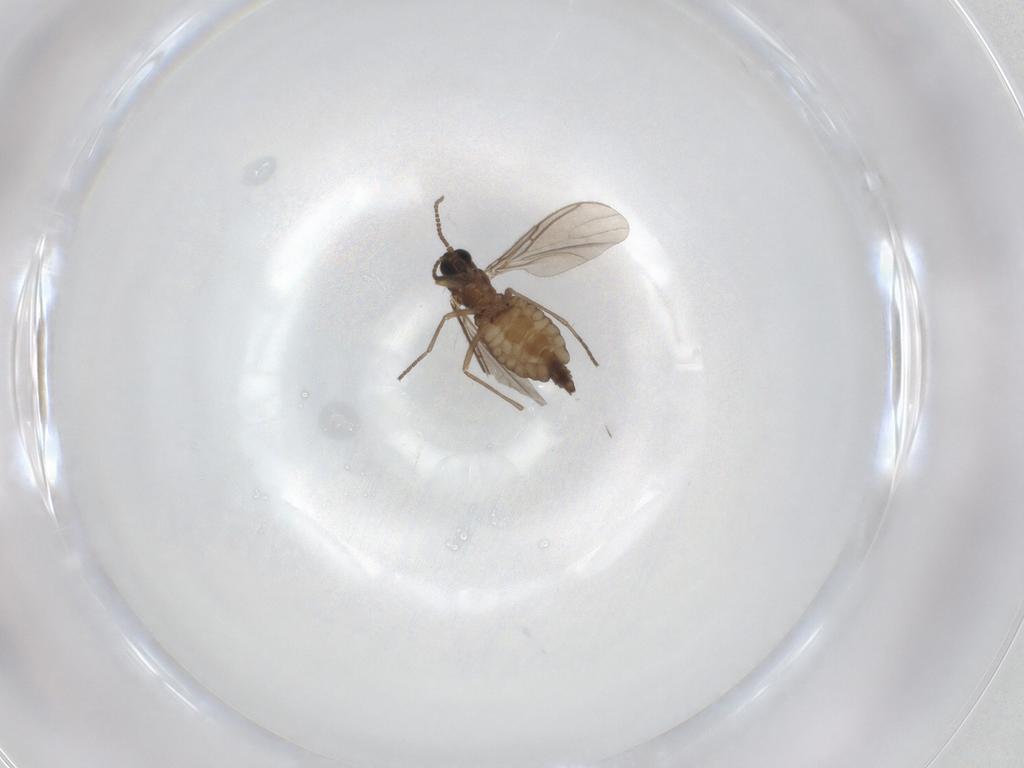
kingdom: Animalia
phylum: Arthropoda
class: Insecta
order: Diptera
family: Sciaridae
